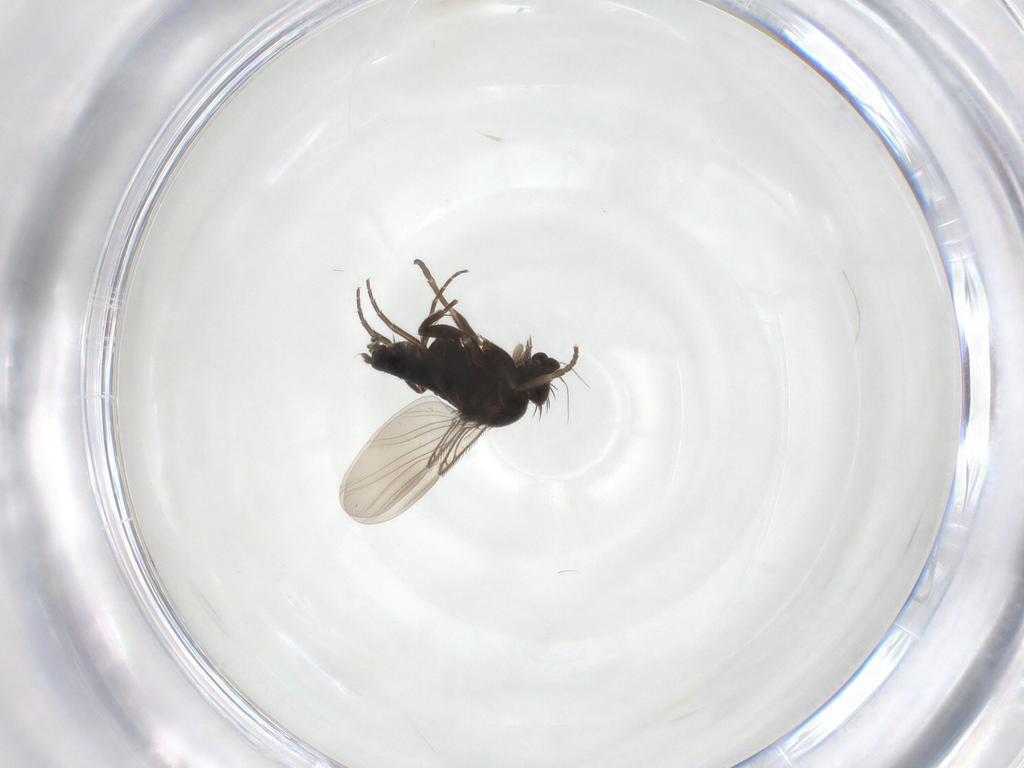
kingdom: Animalia
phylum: Arthropoda
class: Insecta
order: Diptera
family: Phoridae
